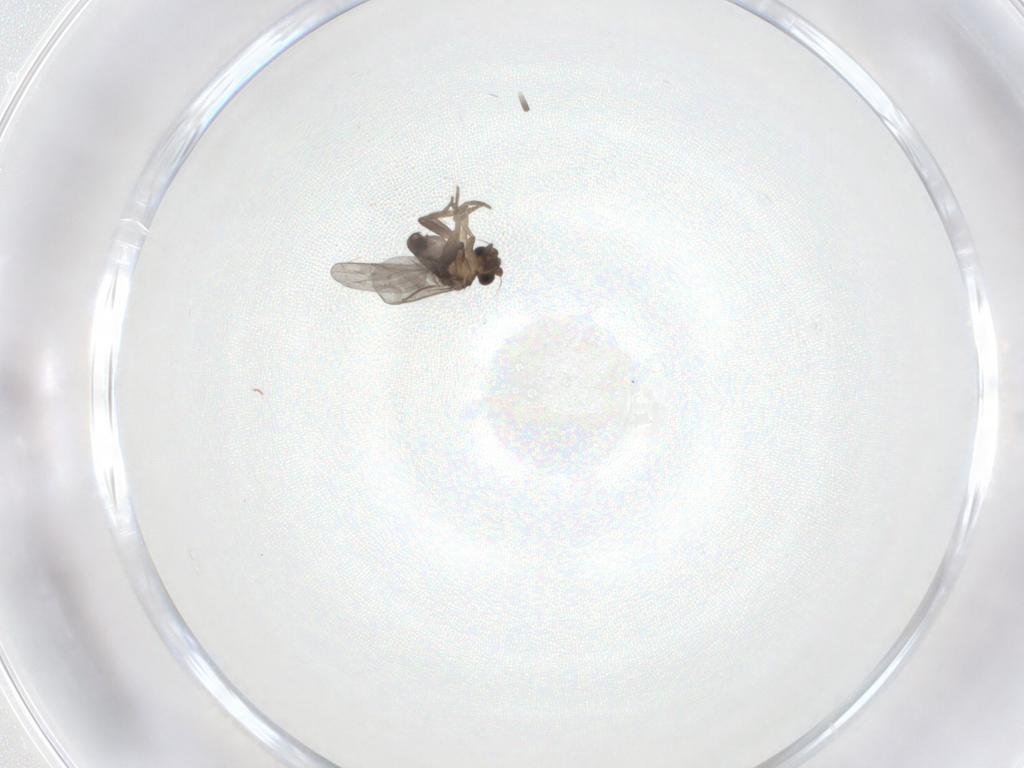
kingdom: Animalia
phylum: Arthropoda
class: Insecta
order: Diptera
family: Cecidomyiidae
